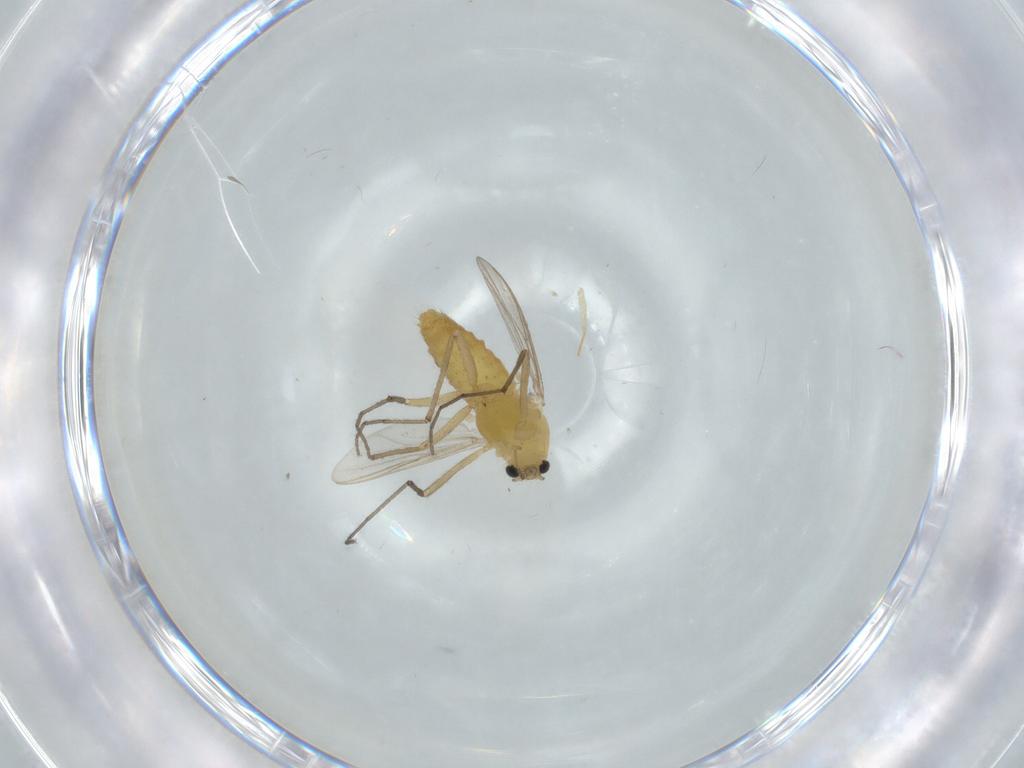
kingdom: Animalia
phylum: Arthropoda
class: Insecta
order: Diptera
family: Chironomidae
